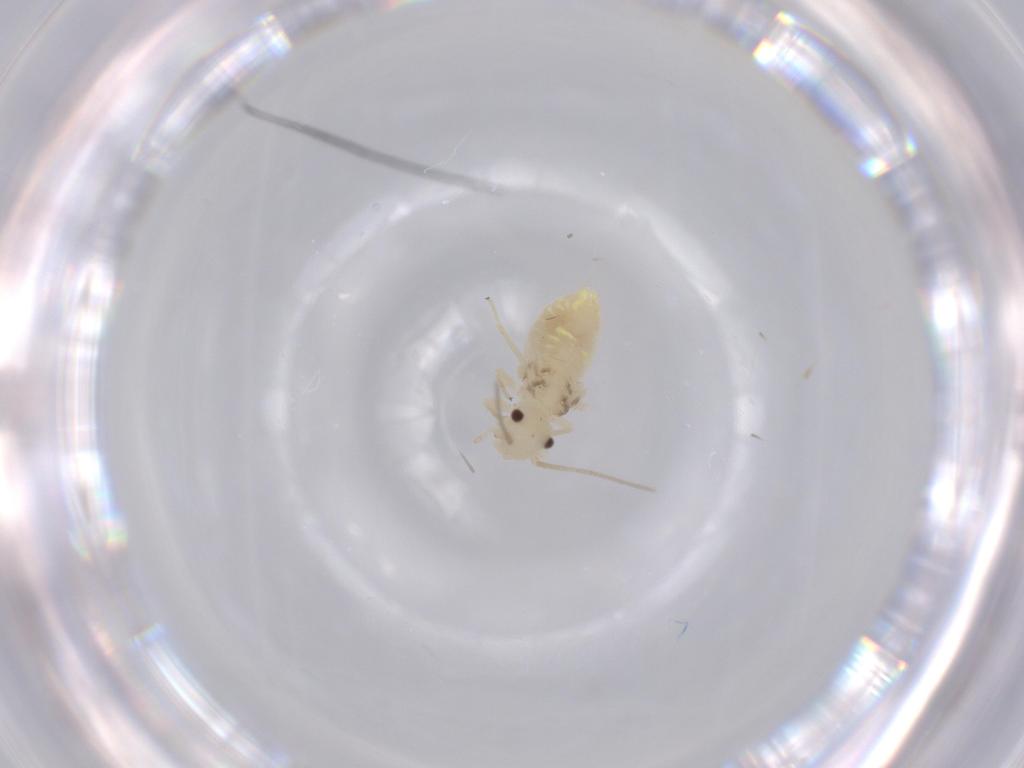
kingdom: Animalia
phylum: Arthropoda
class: Insecta
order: Psocodea
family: Caeciliusidae
